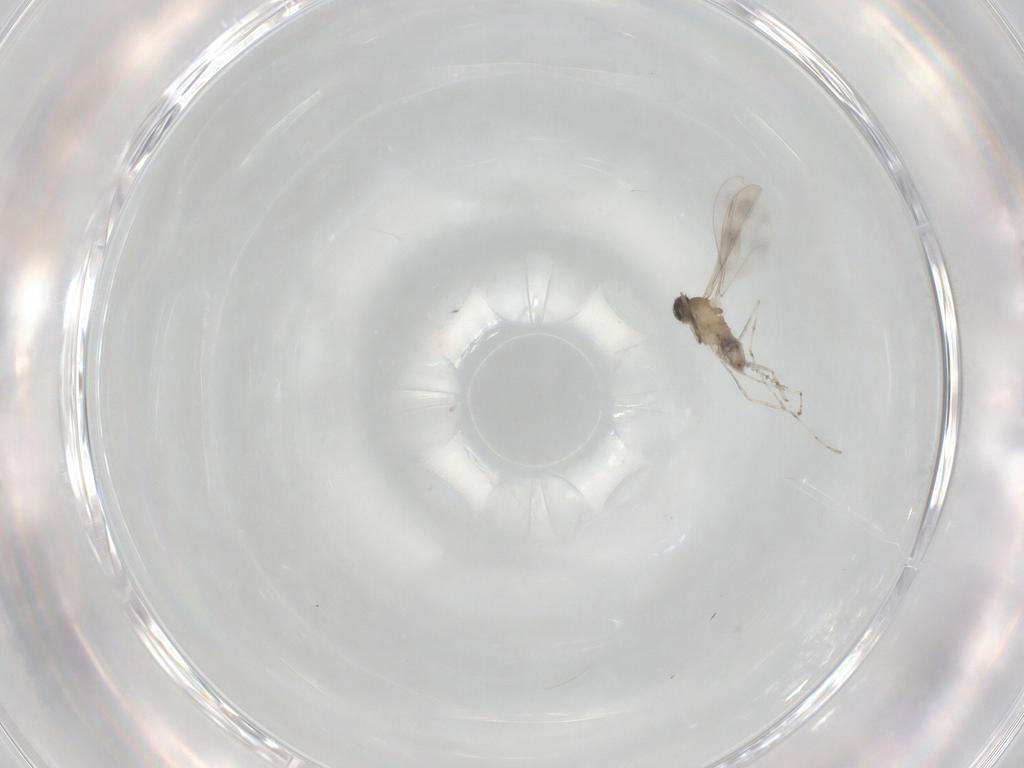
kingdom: Animalia
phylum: Arthropoda
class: Insecta
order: Diptera
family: Cecidomyiidae
